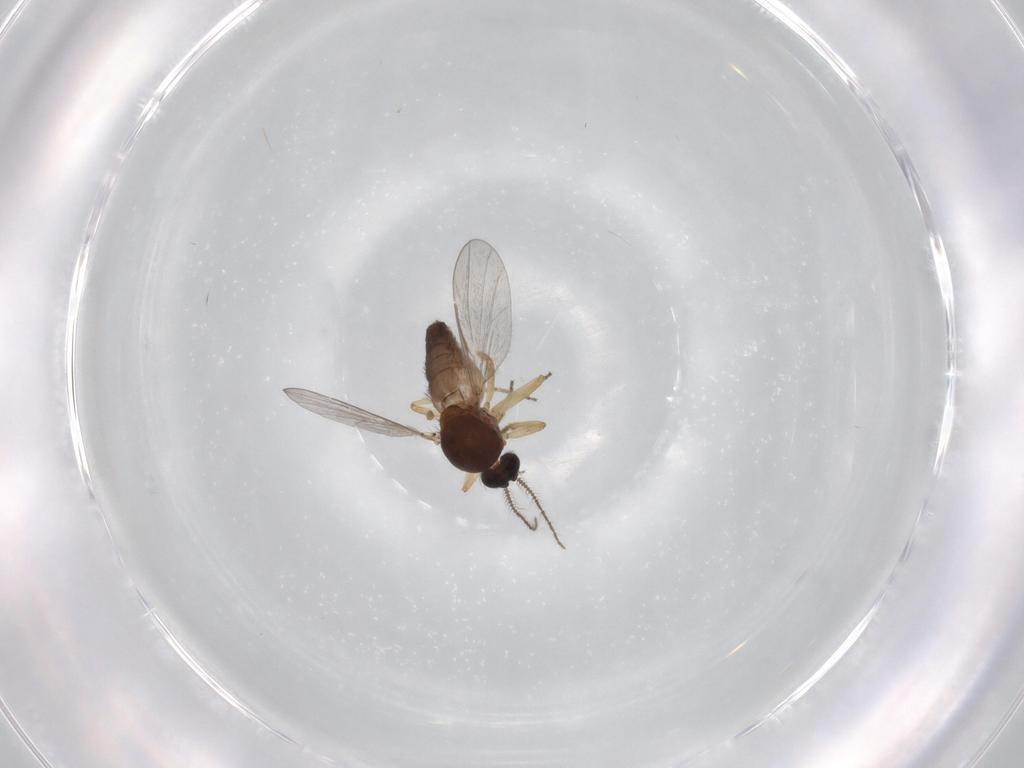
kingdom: Animalia
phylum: Arthropoda
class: Insecta
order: Diptera
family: Ceratopogonidae
